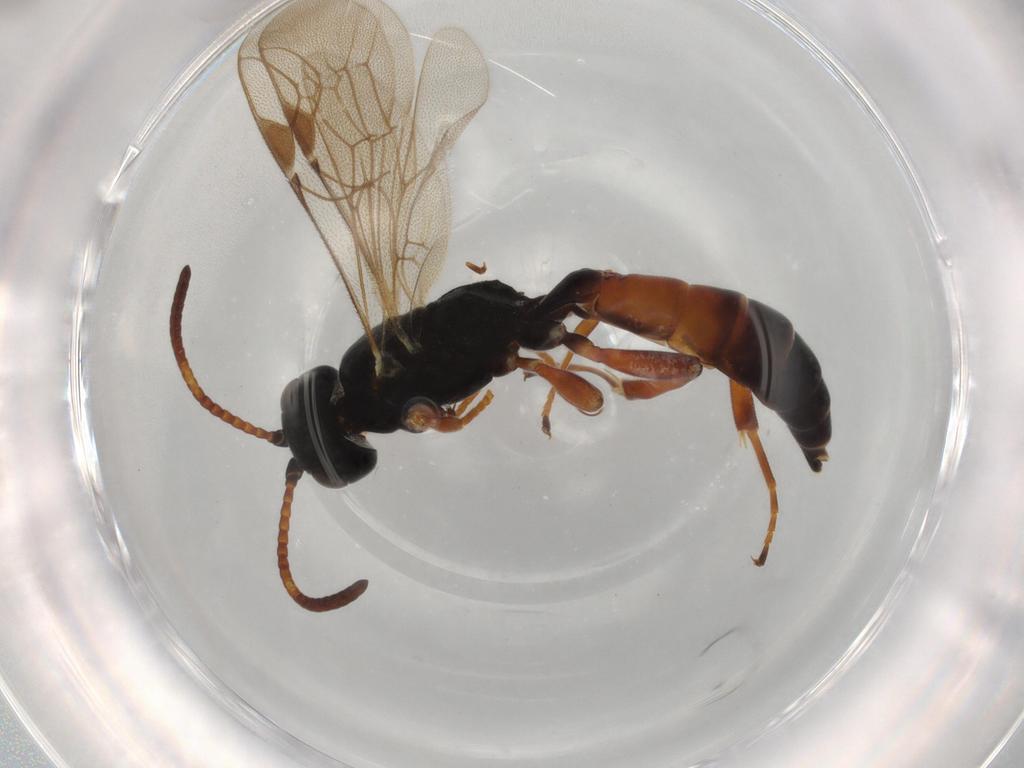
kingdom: Animalia
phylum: Arthropoda
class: Insecta
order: Hymenoptera
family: Ichneumonidae
